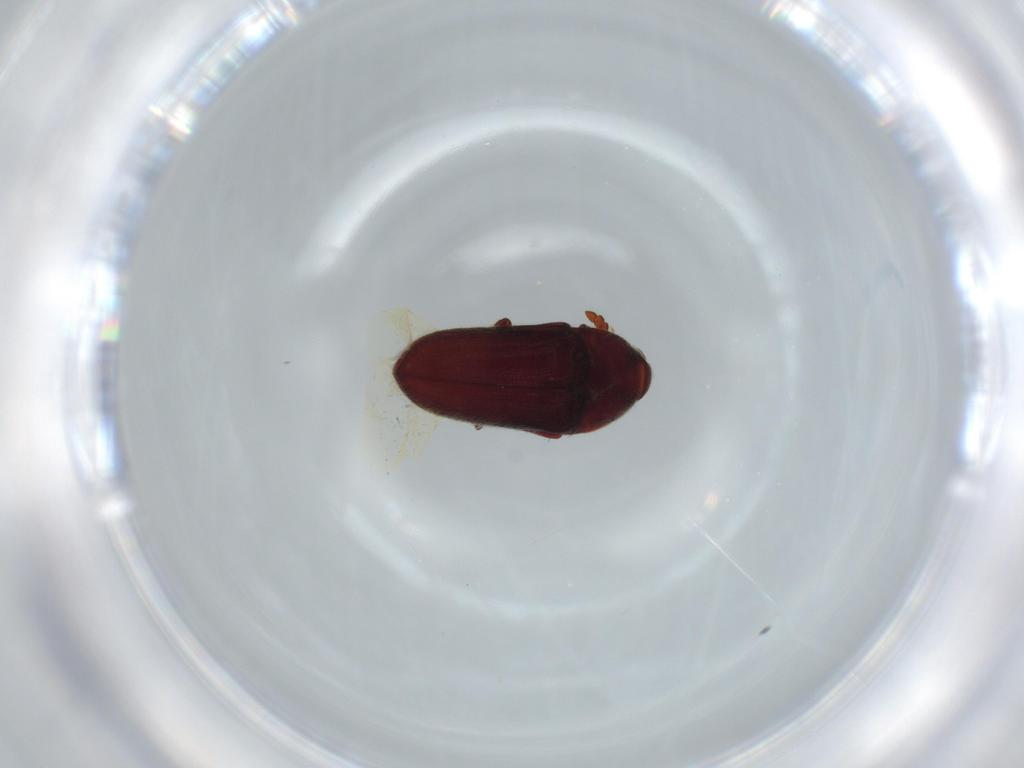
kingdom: Animalia
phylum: Arthropoda
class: Insecta
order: Coleoptera
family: Throscidae
